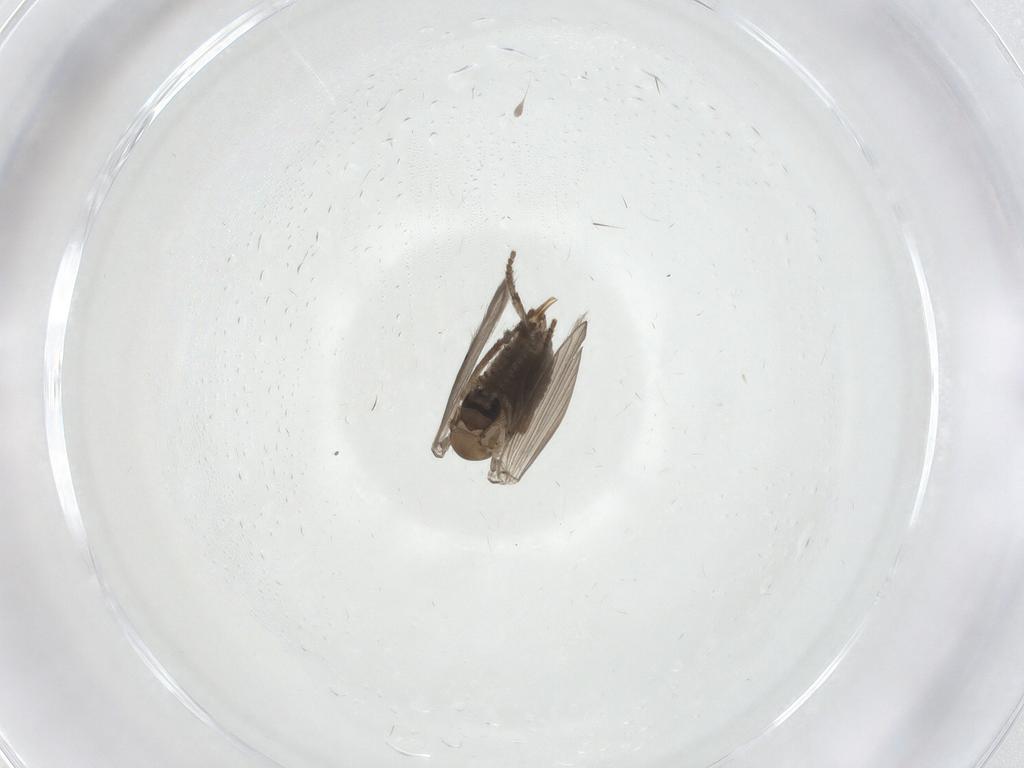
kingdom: Animalia
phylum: Arthropoda
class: Insecta
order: Diptera
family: Psychodidae
